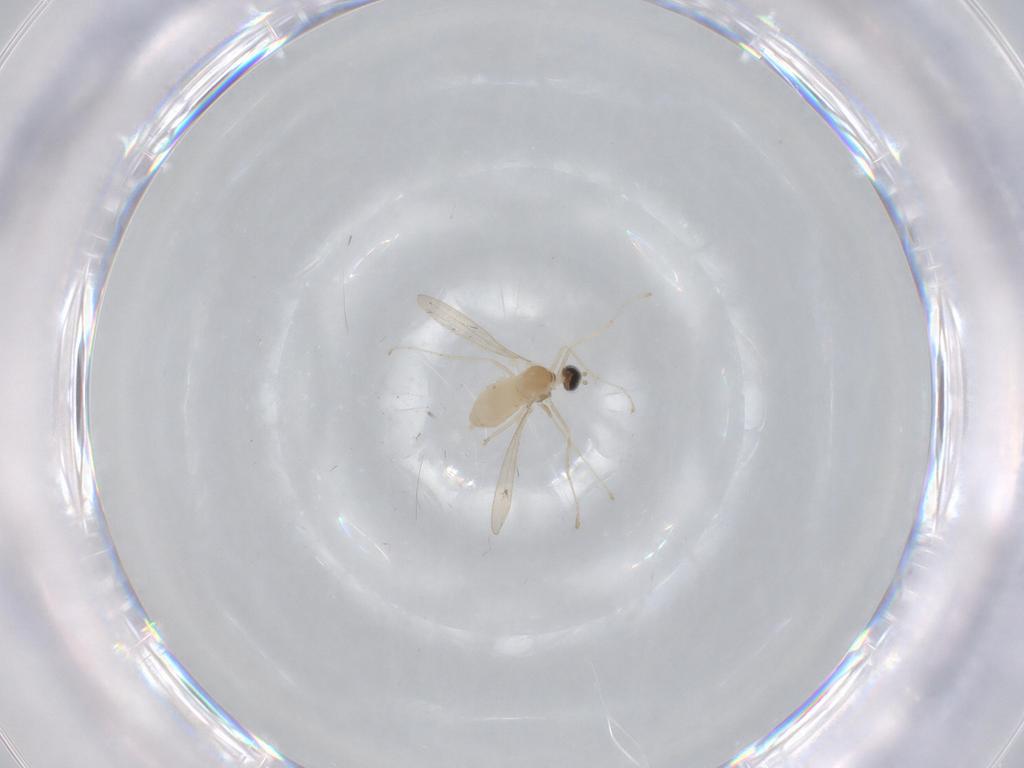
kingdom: Animalia
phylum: Arthropoda
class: Insecta
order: Diptera
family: Cecidomyiidae
